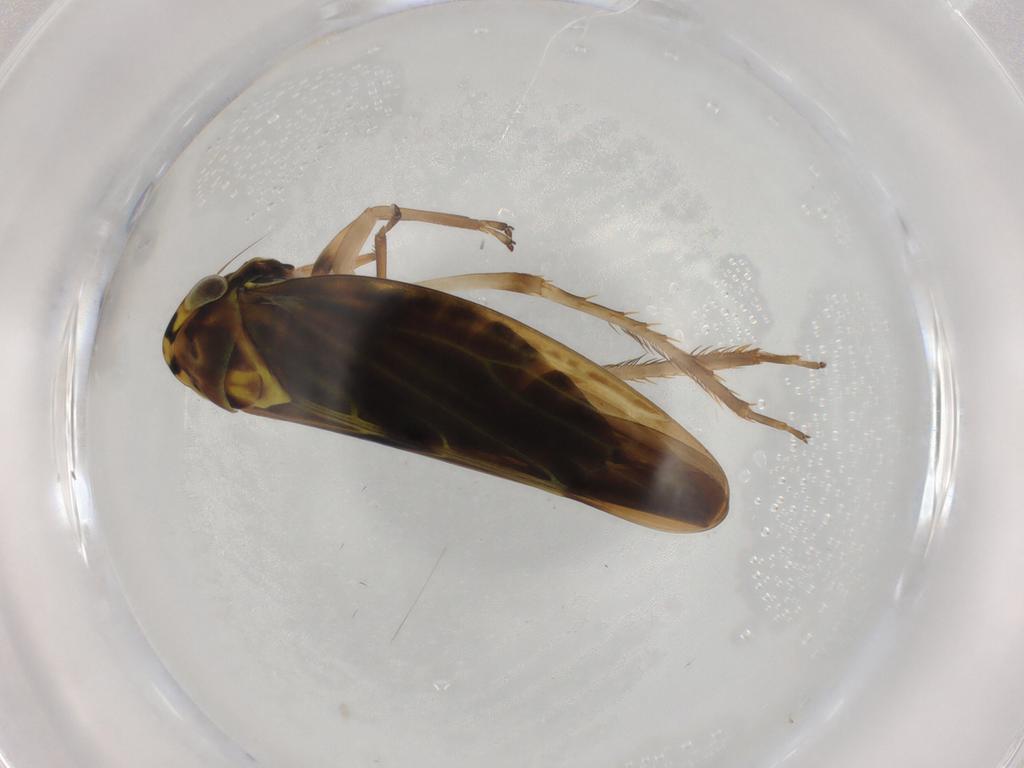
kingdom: Animalia
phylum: Arthropoda
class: Insecta
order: Hemiptera
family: Cicadellidae
